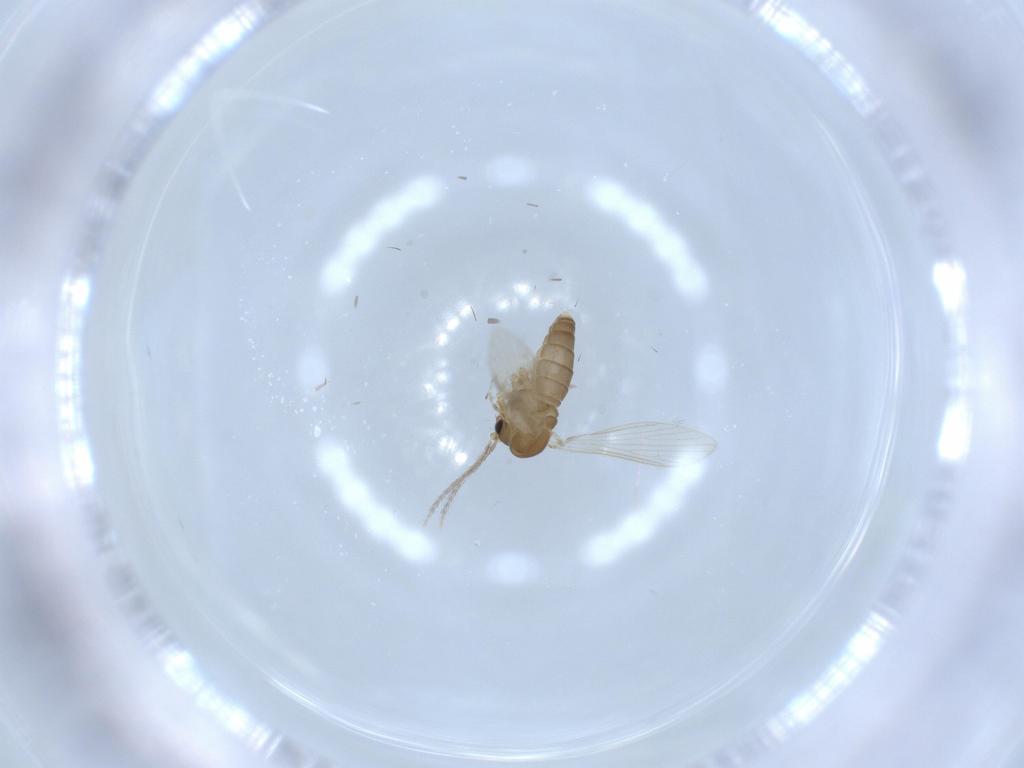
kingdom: Animalia
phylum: Arthropoda
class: Insecta
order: Diptera
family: Psychodidae
